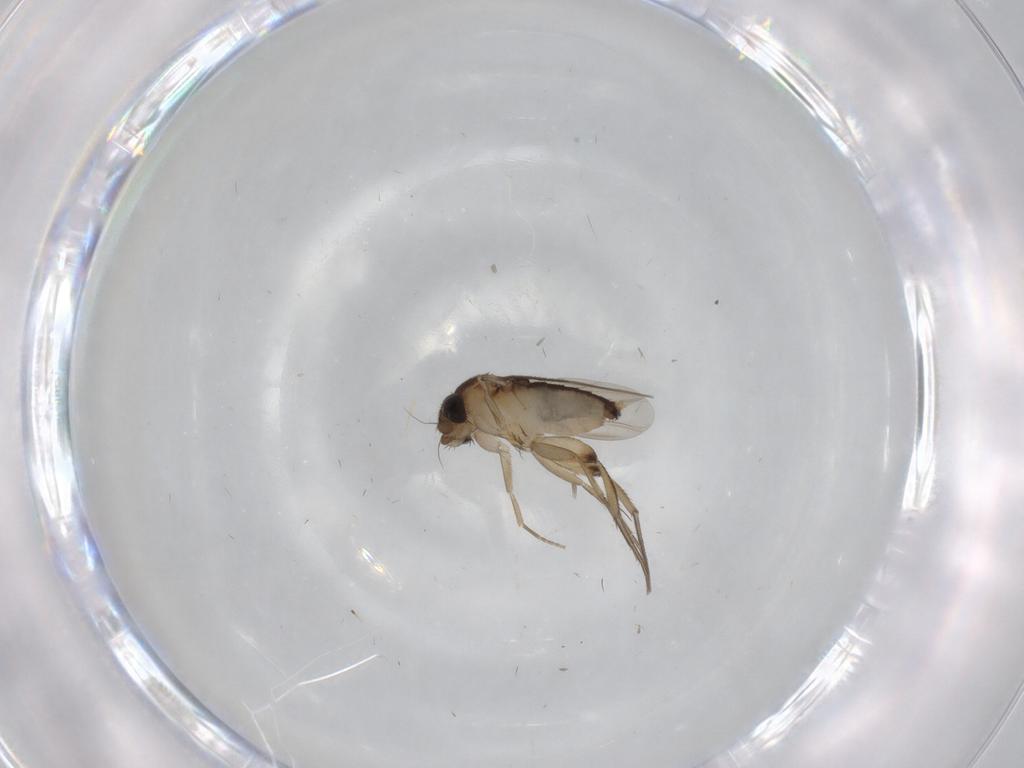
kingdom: Animalia
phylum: Arthropoda
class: Insecta
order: Diptera
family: Phoridae
